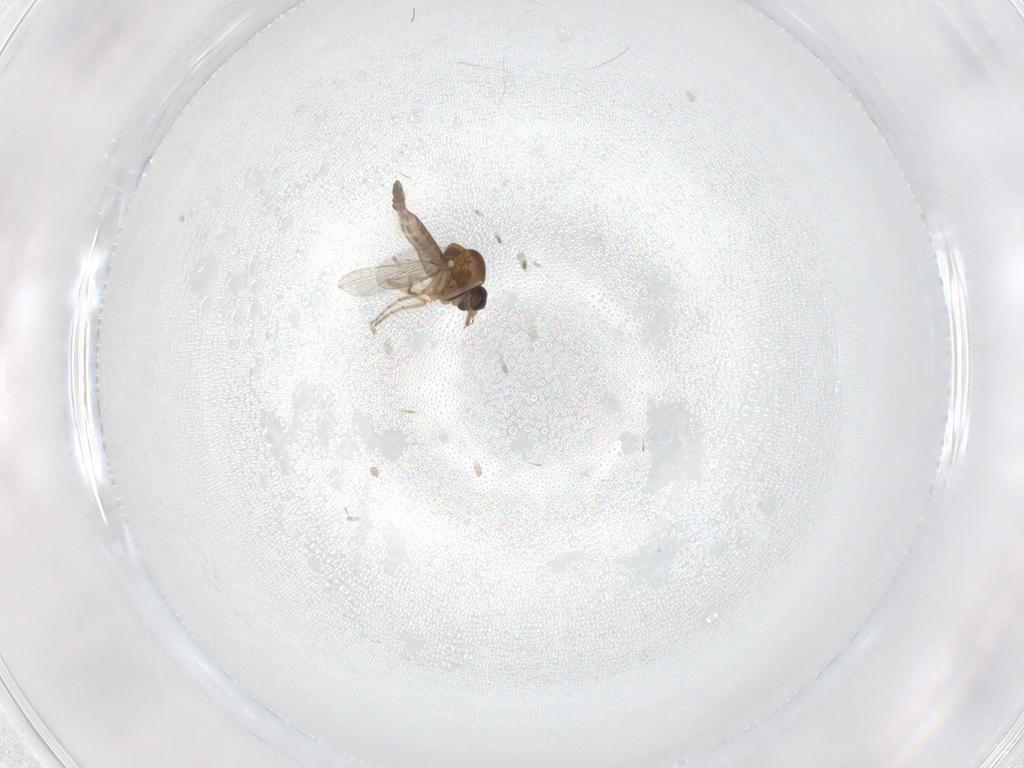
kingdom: Animalia
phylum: Arthropoda
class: Insecta
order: Diptera
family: Ceratopogonidae
